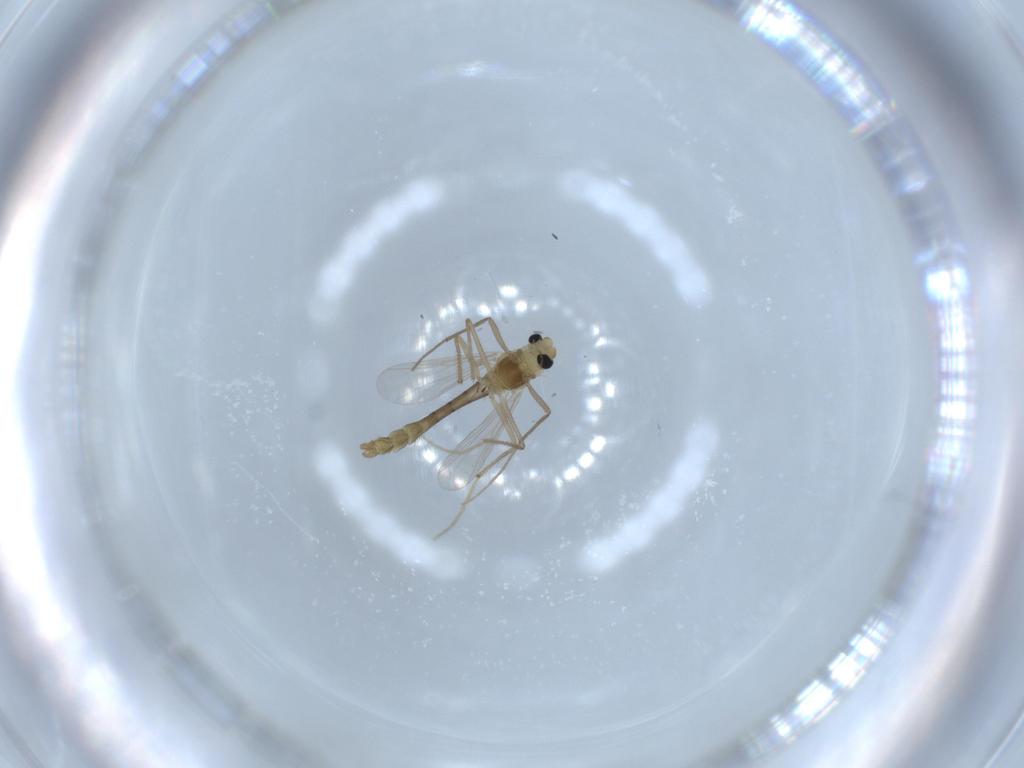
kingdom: Animalia
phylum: Arthropoda
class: Insecta
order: Diptera
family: Chironomidae
